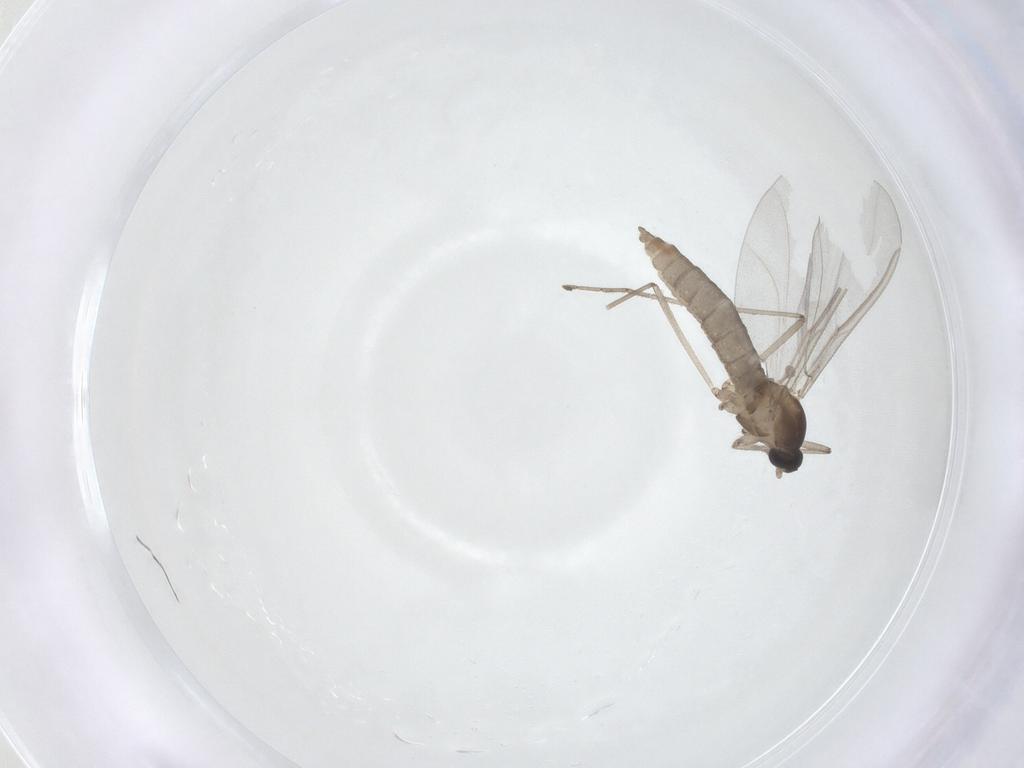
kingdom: Animalia
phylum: Arthropoda
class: Insecta
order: Diptera
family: Cecidomyiidae
